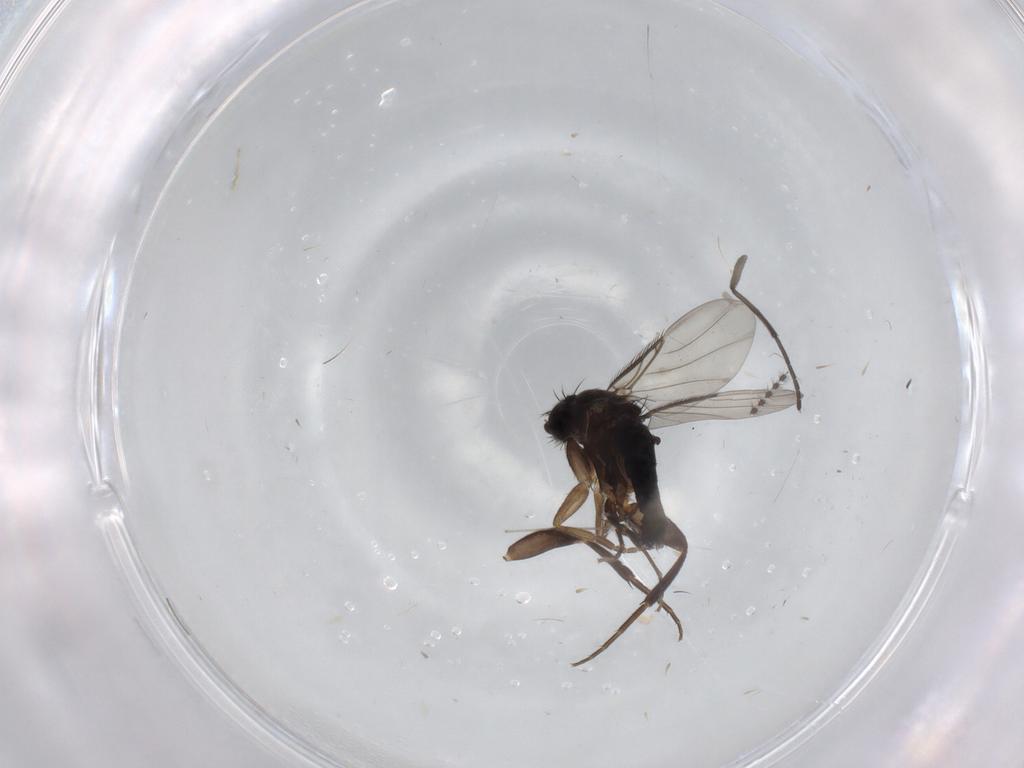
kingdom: Animalia
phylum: Arthropoda
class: Insecta
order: Diptera
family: Phoridae
